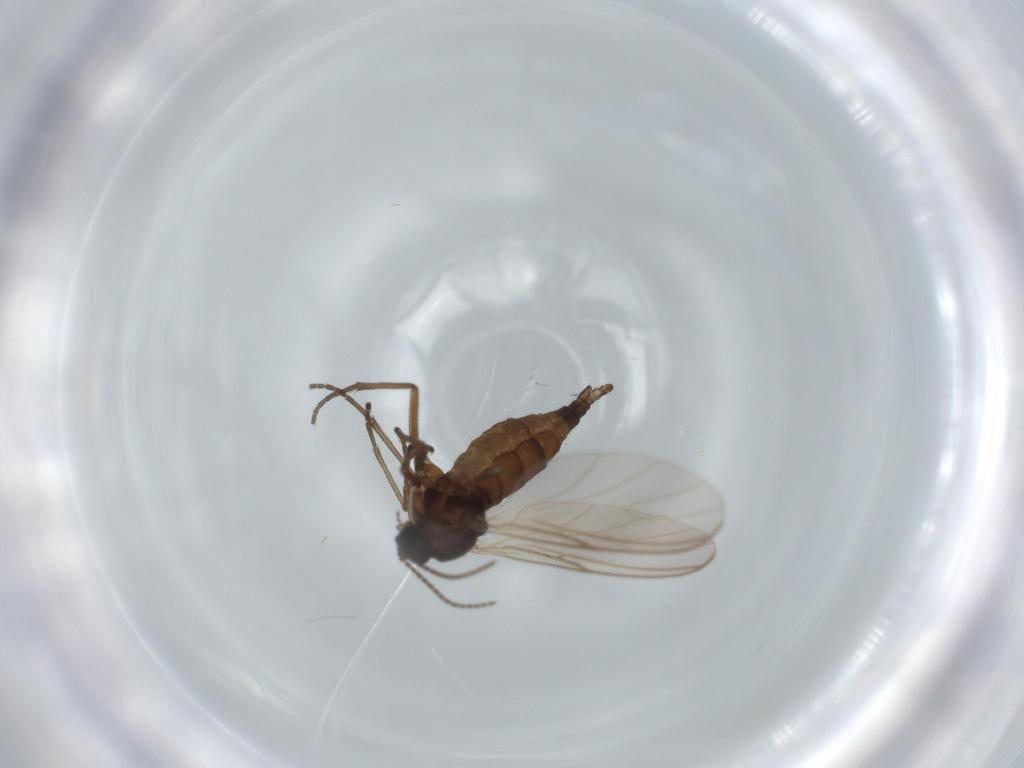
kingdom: Animalia
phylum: Arthropoda
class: Insecta
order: Diptera
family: Sciaridae
